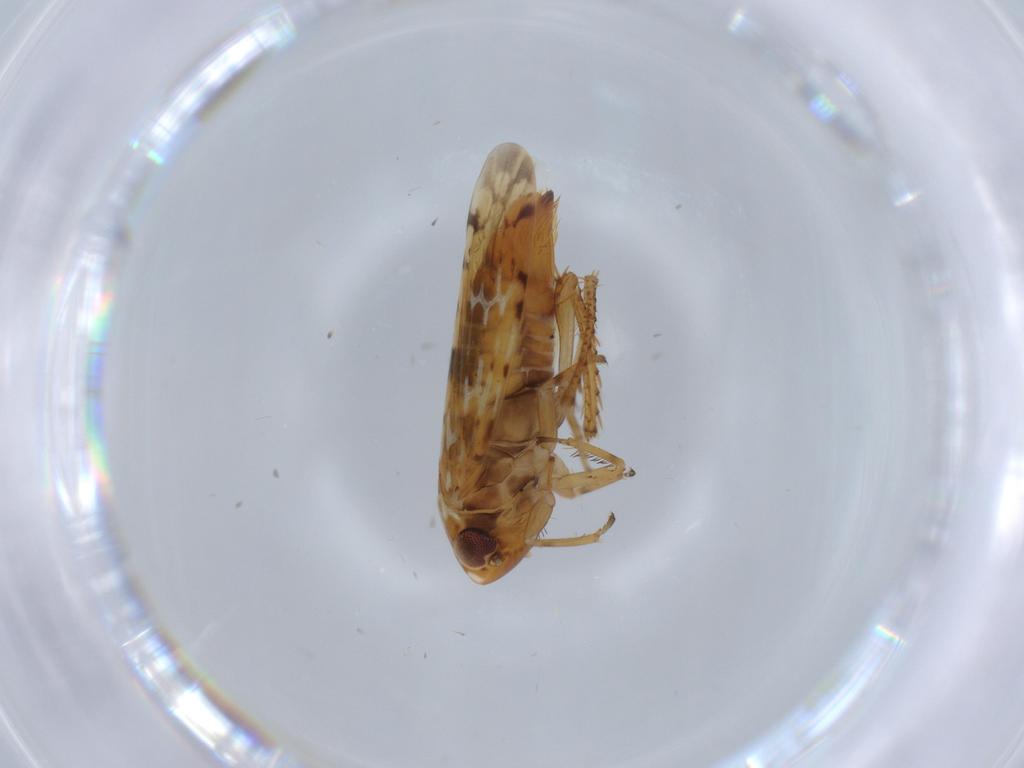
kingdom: Animalia
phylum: Arthropoda
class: Insecta
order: Hemiptera
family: Cicadellidae
